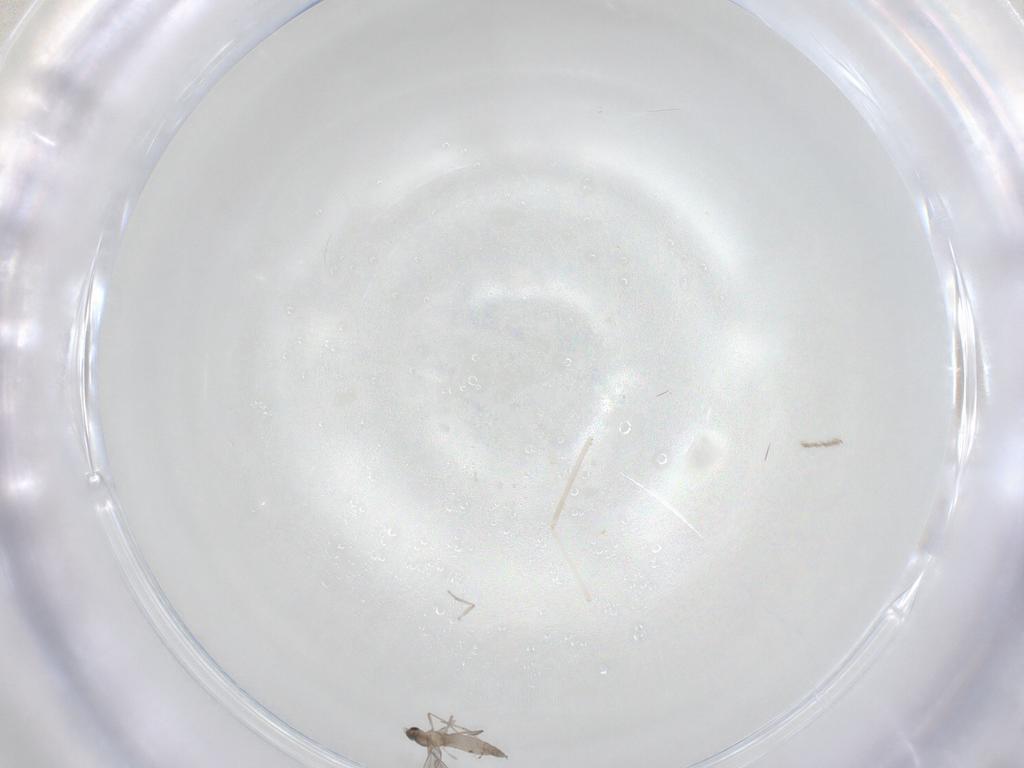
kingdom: Animalia
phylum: Arthropoda
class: Insecta
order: Diptera
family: Cecidomyiidae
